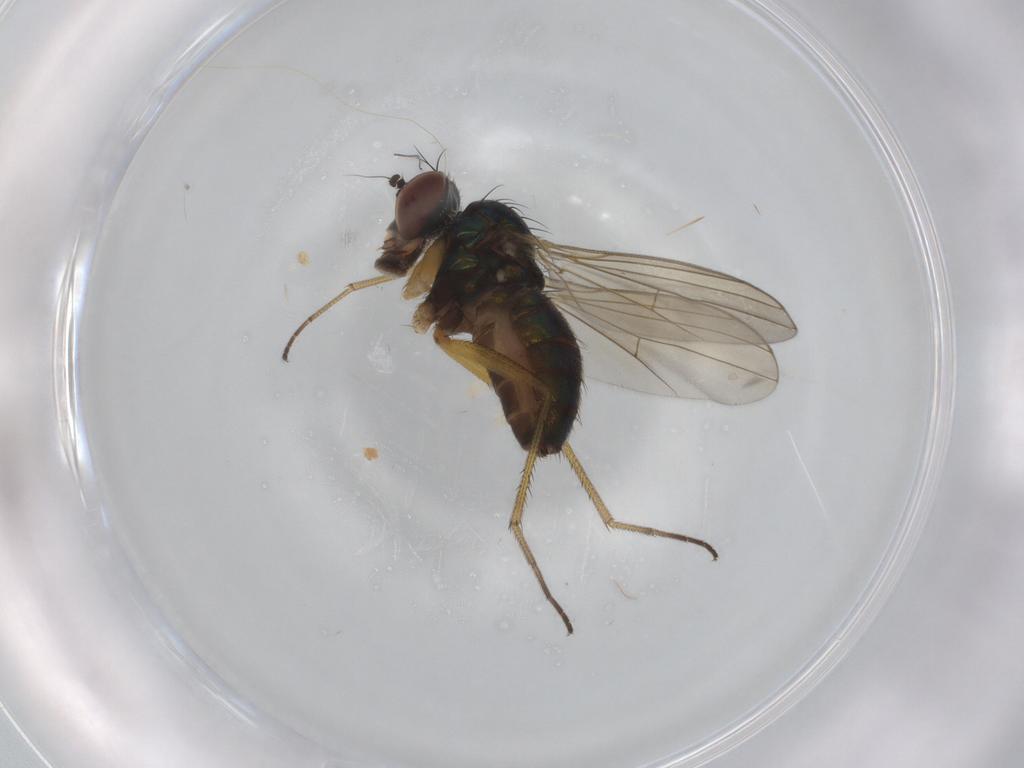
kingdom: Animalia
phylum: Arthropoda
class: Insecta
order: Diptera
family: Dolichopodidae
